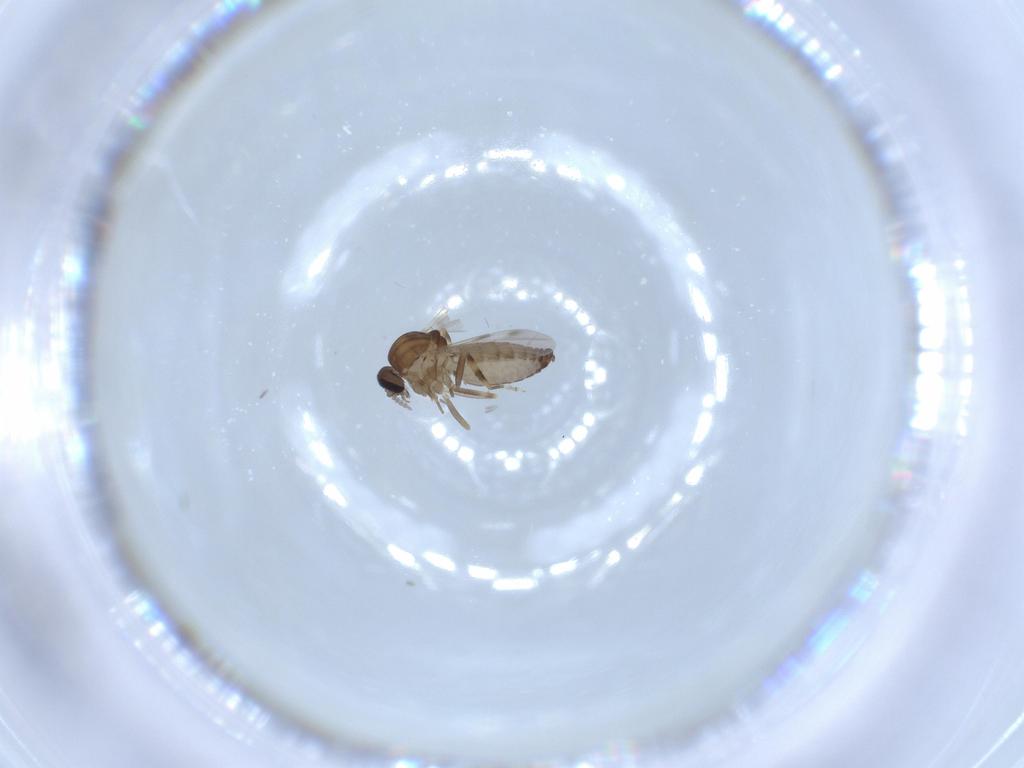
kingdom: Animalia
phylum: Arthropoda
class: Insecta
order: Diptera
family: Ceratopogonidae
